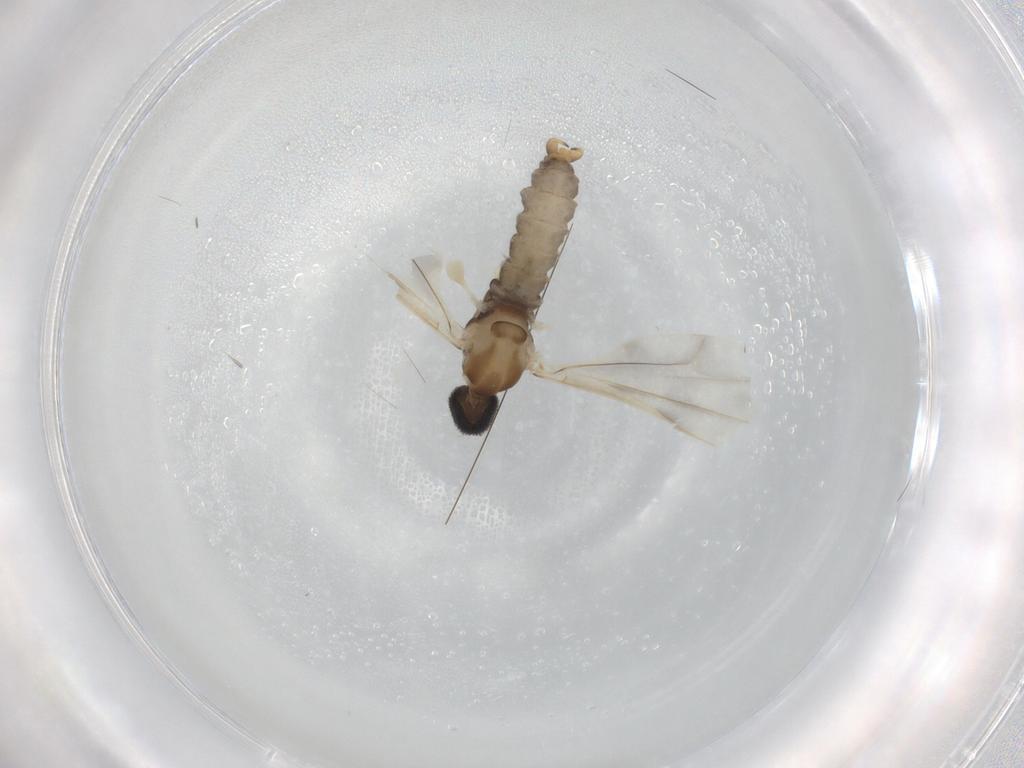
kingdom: Animalia
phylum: Arthropoda
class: Insecta
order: Diptera
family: Cecidomyiidae
